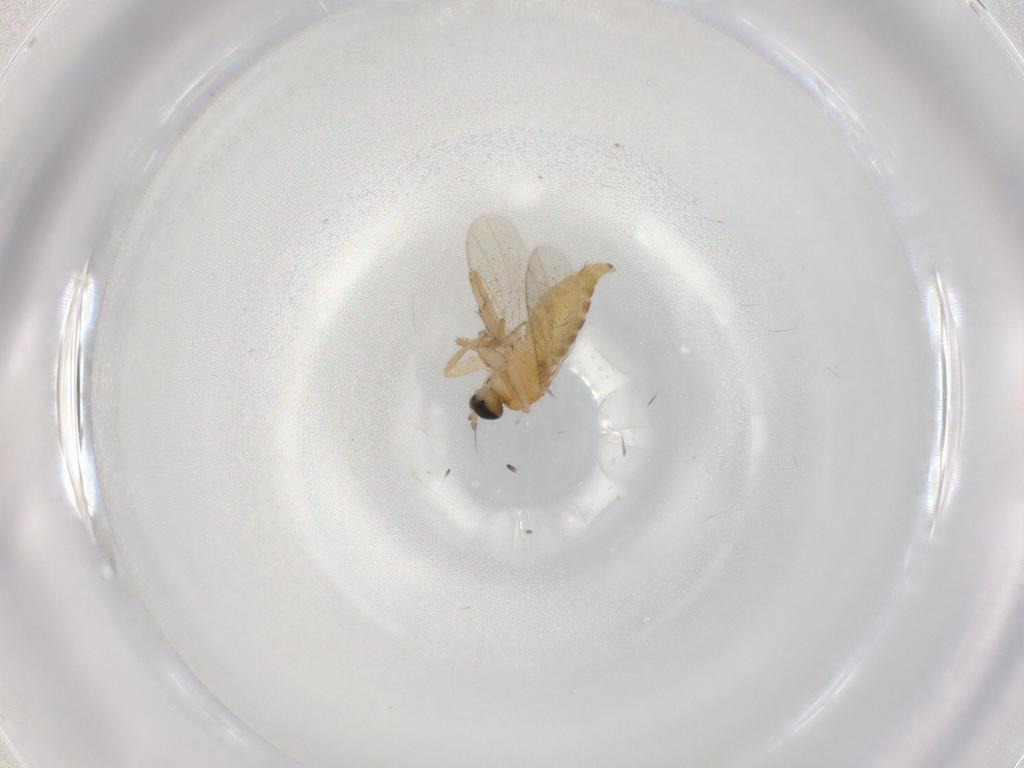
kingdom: Animalia
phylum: Arthropoda
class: Insecta
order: Diptera
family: Hybotidae
